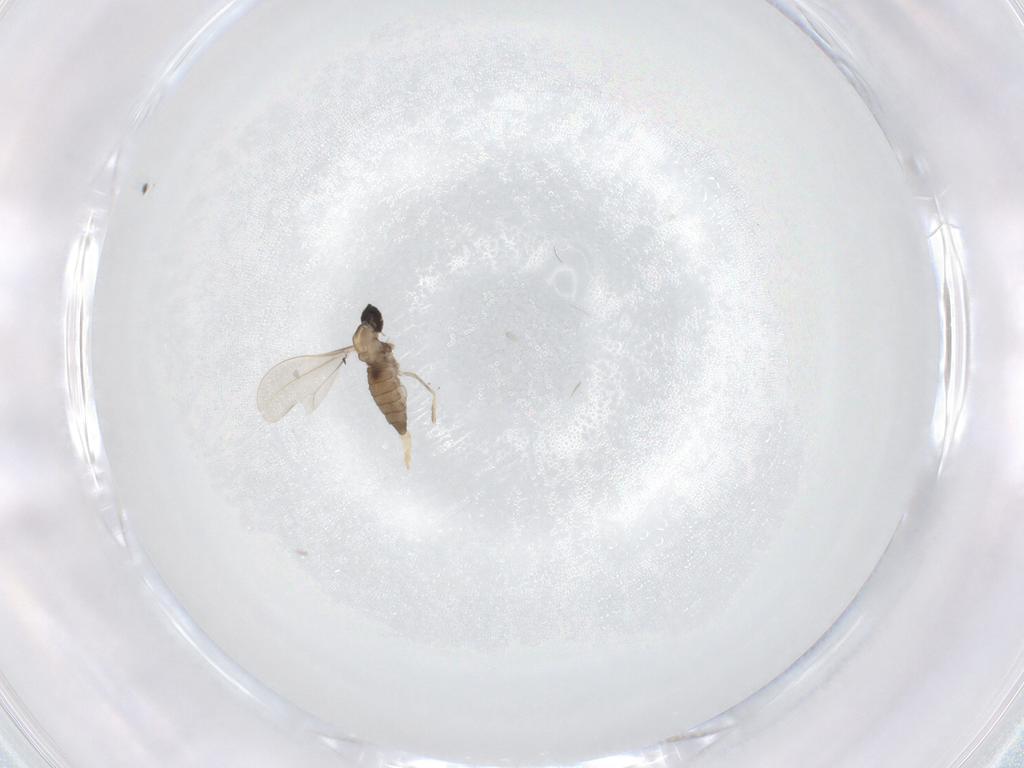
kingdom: Animalia
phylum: Arthropoda
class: Insecta
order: Diptera
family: Cecidomyiidae
